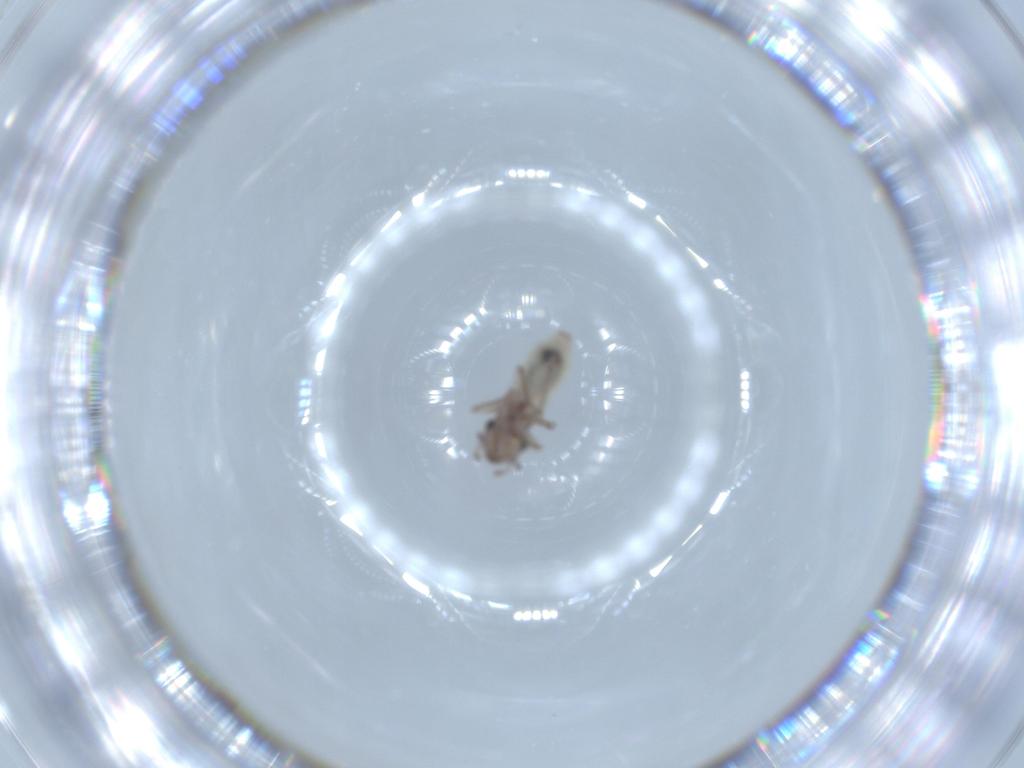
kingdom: Animalia
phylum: Arthropoda
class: Insecta
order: Psocodea
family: Lepidopsocidae
